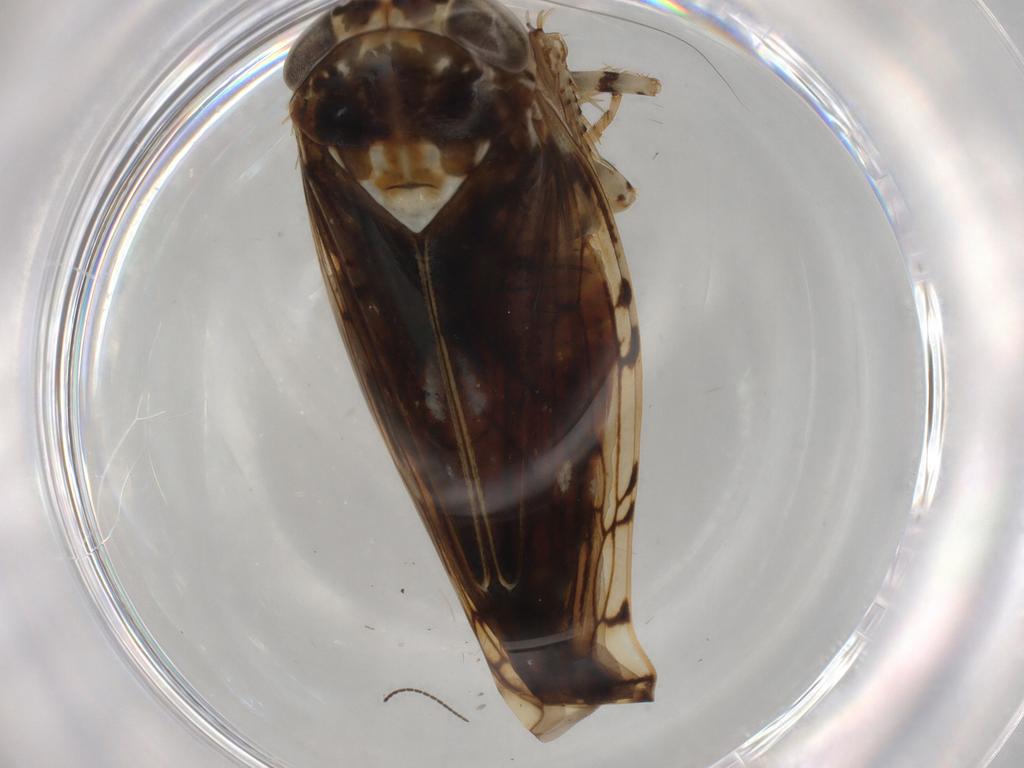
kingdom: Animalia
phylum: Arthropoda
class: Insecta
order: Hemiptera
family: Cicadellidae
